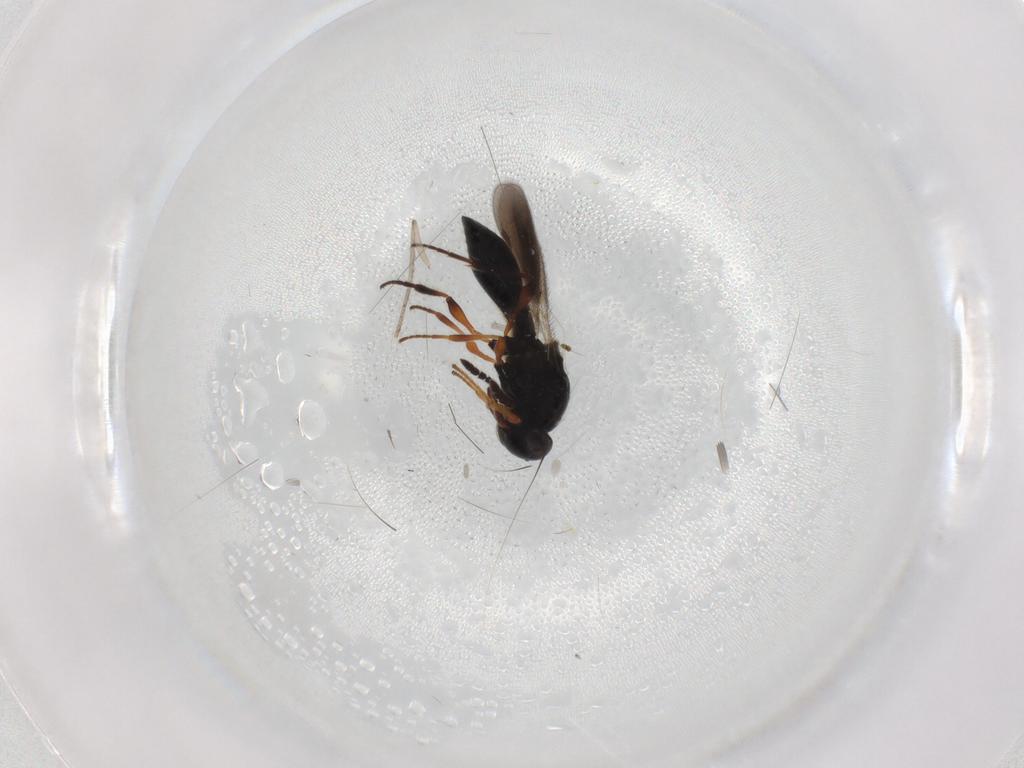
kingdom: Animalia
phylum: Arthropoda
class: Insecta
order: Hymenoptera
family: Platygastridae
